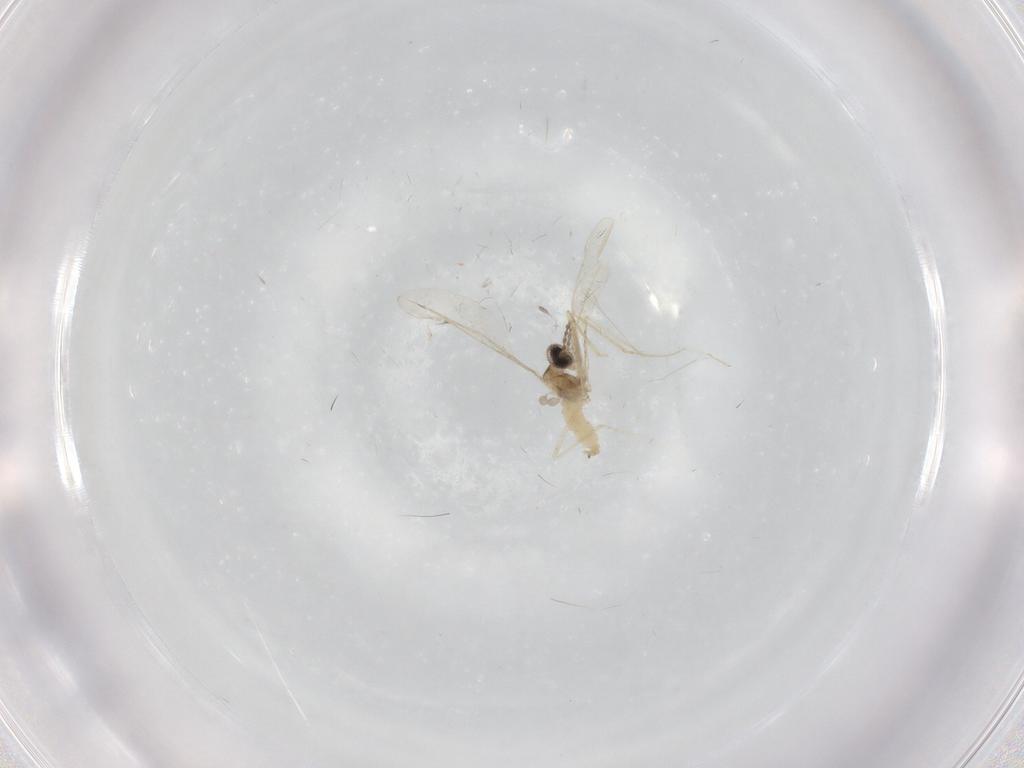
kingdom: Animalia
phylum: Arthropoda
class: Insecta
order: Diptera
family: Cecidomyiidae
